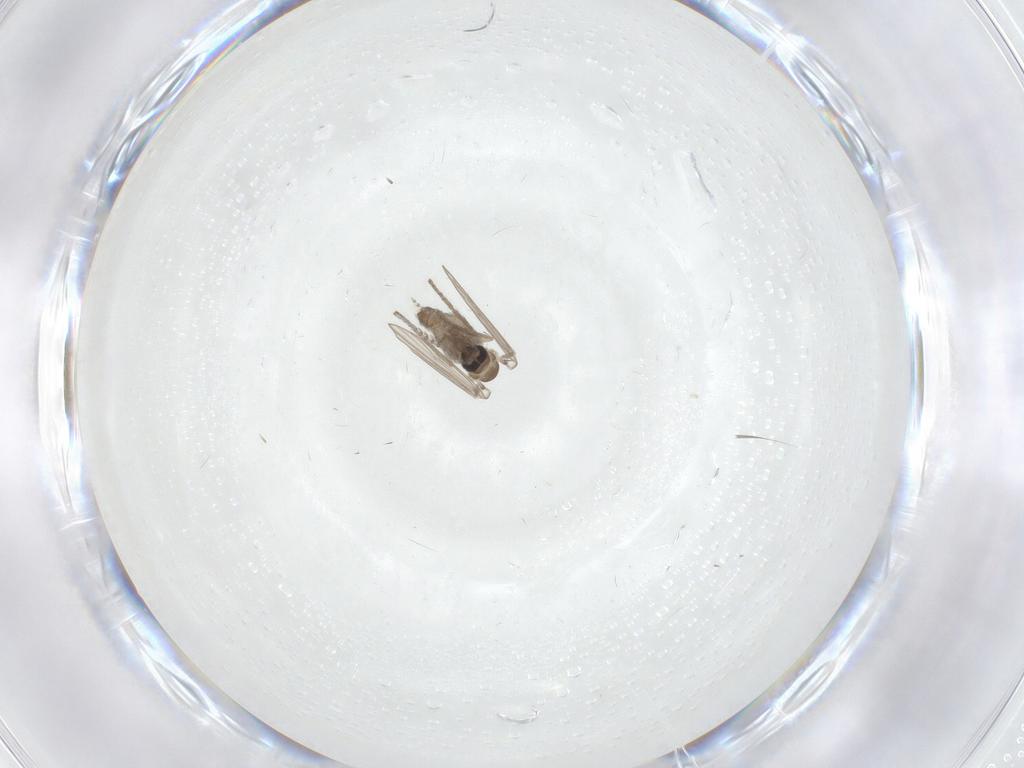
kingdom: Animalia
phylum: Arthropoda
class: Insecta
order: Diptera
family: Psychodidae
